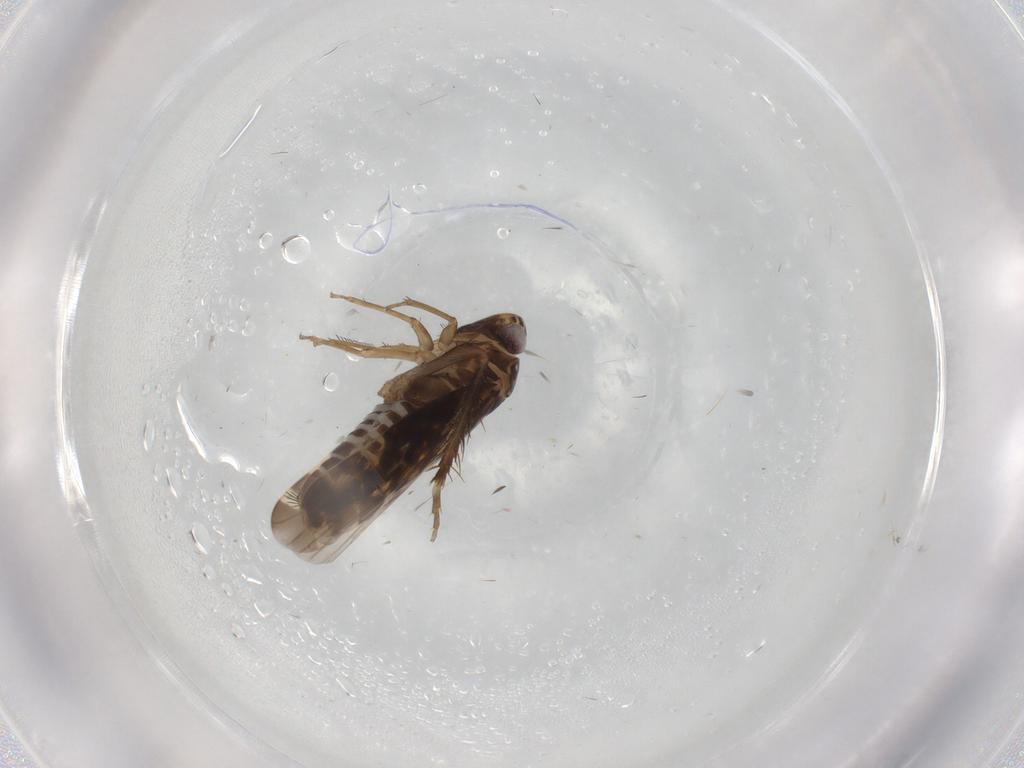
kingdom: Animalia
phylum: Arthropoda
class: Insecta
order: Hemiptera
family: Cicadellidae
